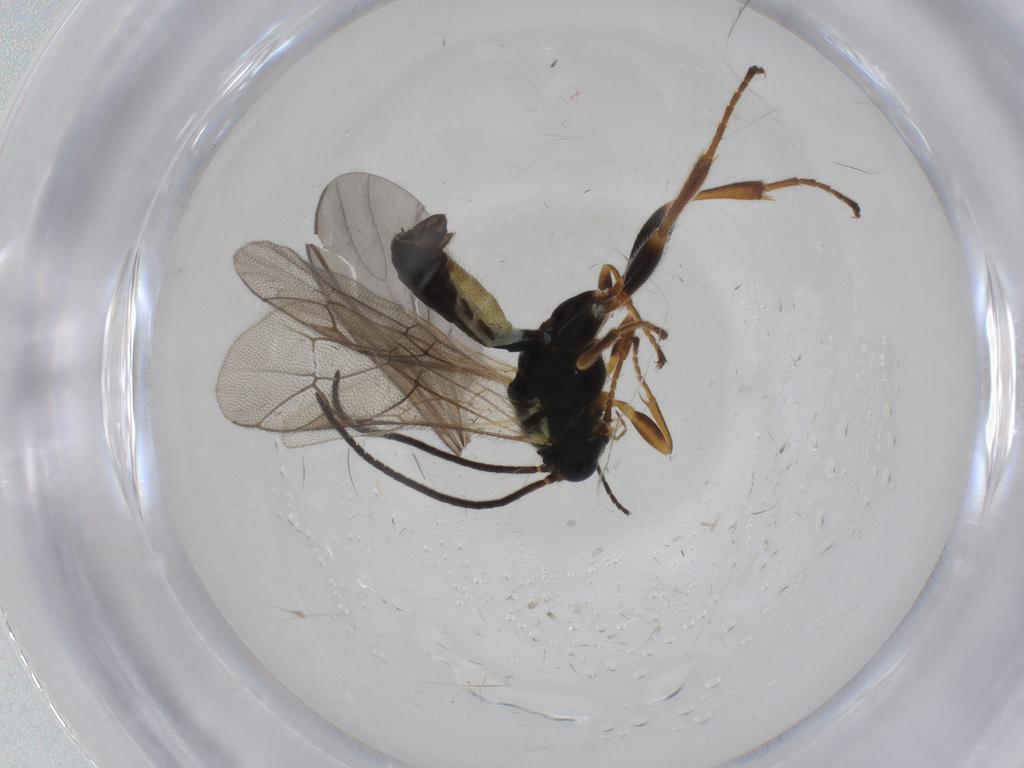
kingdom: Animalia
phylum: Arthropoda
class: Insecta
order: Hymenoptera
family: Ichneumonidae
